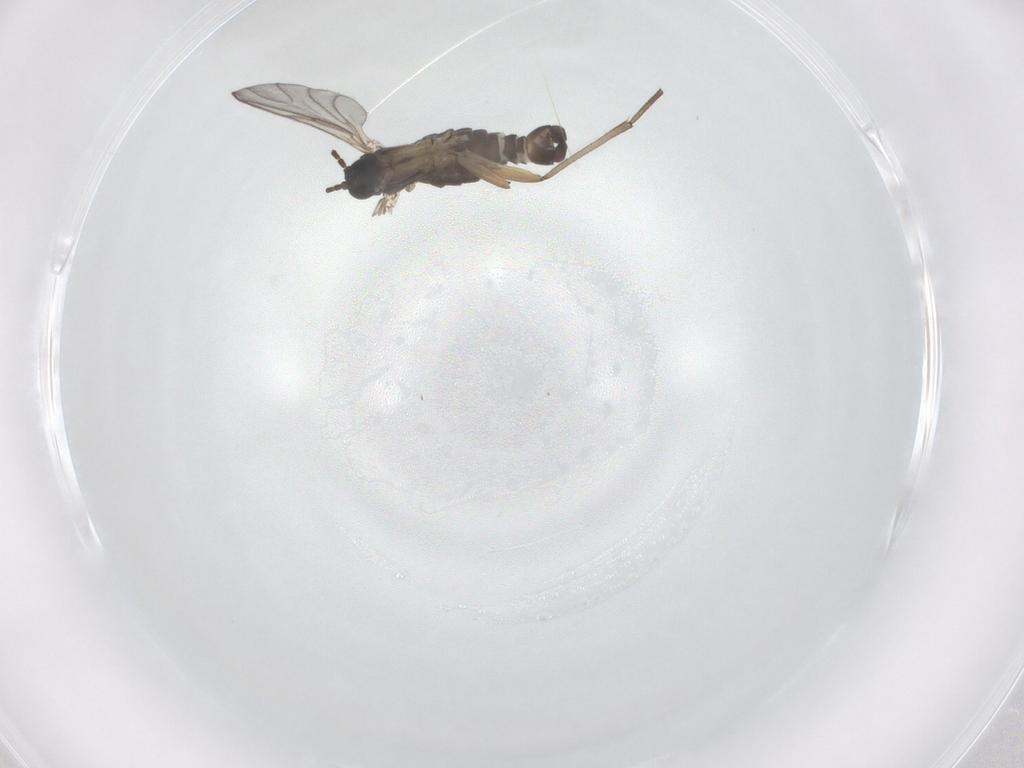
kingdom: Animalia
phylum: Arthropoda
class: Insecta
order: Diptera
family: Sciaridae
